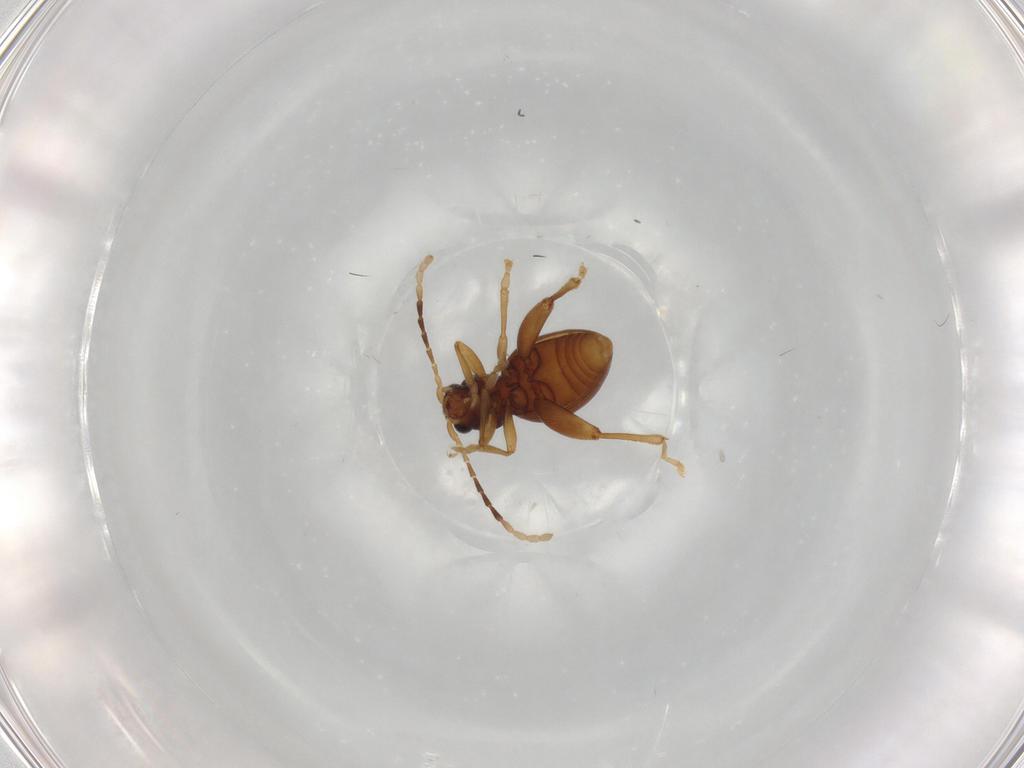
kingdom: Animalia
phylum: Arthropoda
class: Insecta
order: Coleoptera
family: Chrysomelidae
